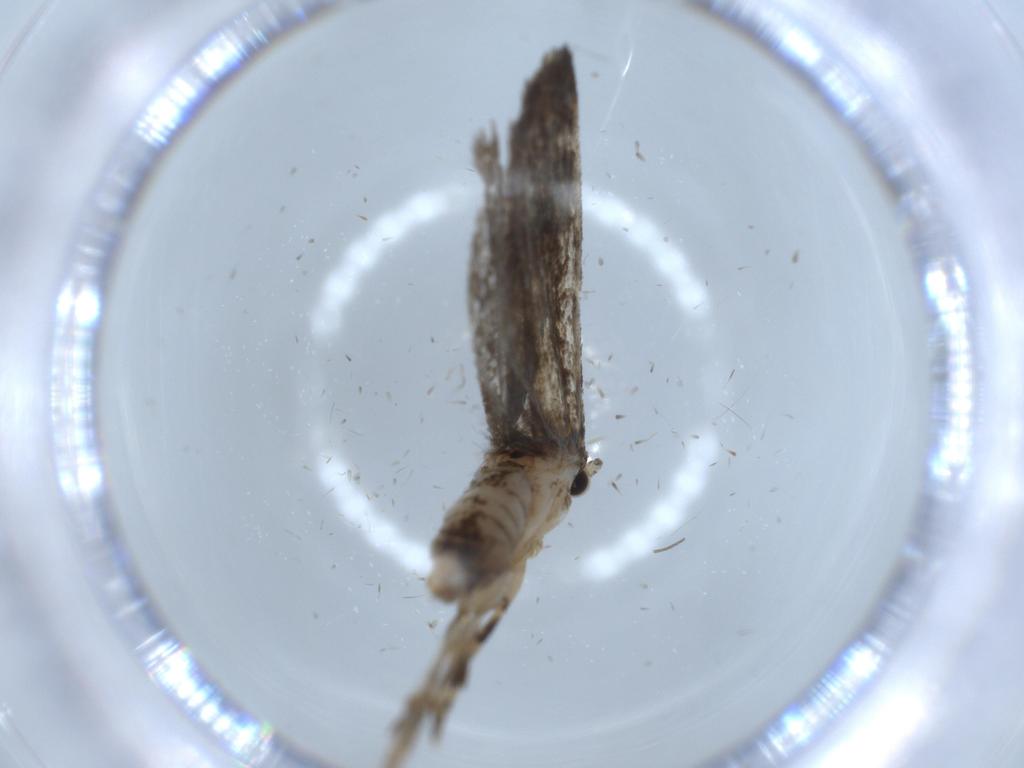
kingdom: Animalia
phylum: Arthropoda
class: Insecta
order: Lepidoptera
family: Tineidae
